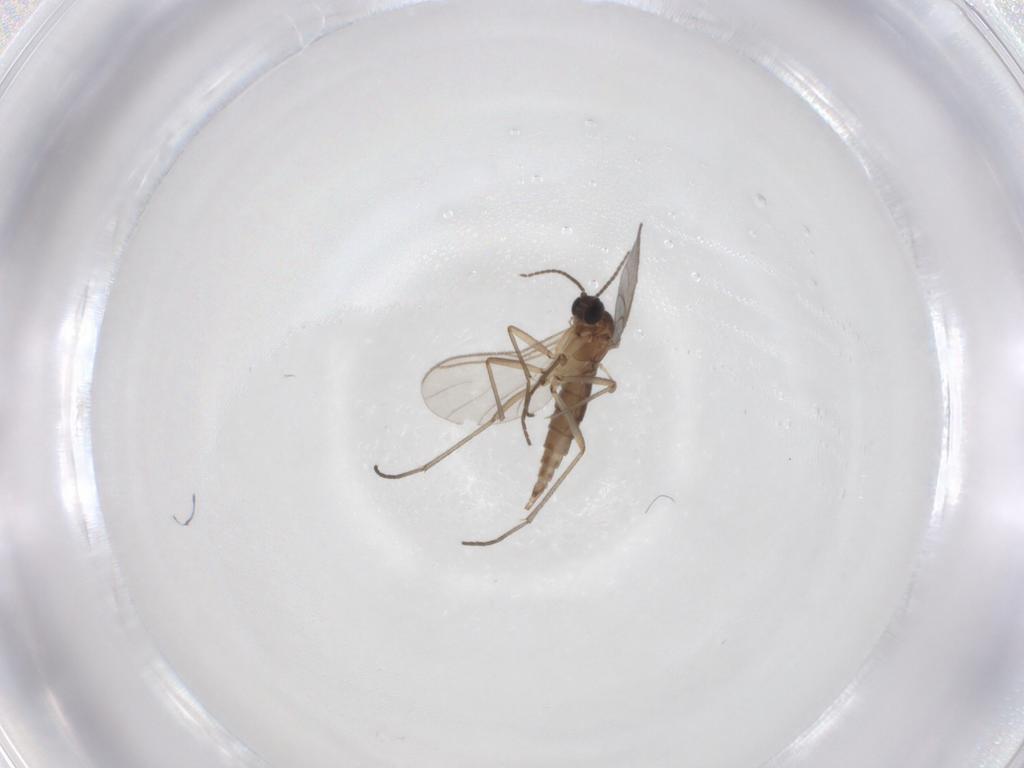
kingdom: Animalia
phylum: Arthropoda
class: Insecta
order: Diptera
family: Sciaridae
